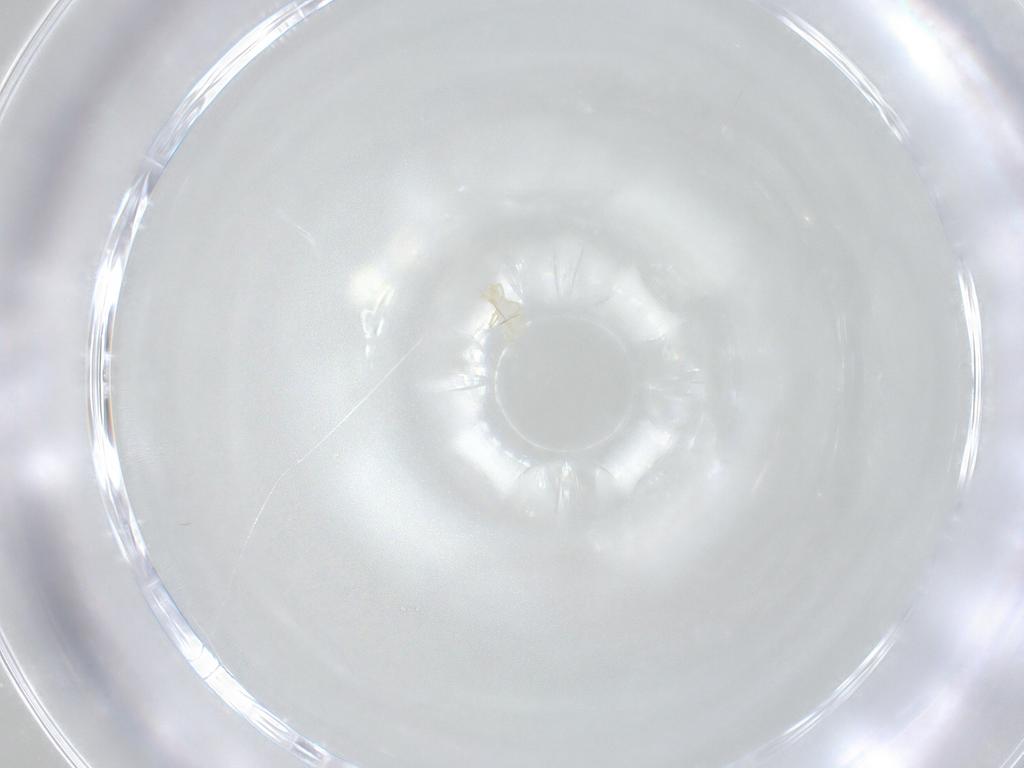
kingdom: Animalia
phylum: Arthropoda
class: Arachnida
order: Trombidiformes
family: Erythraeidae
